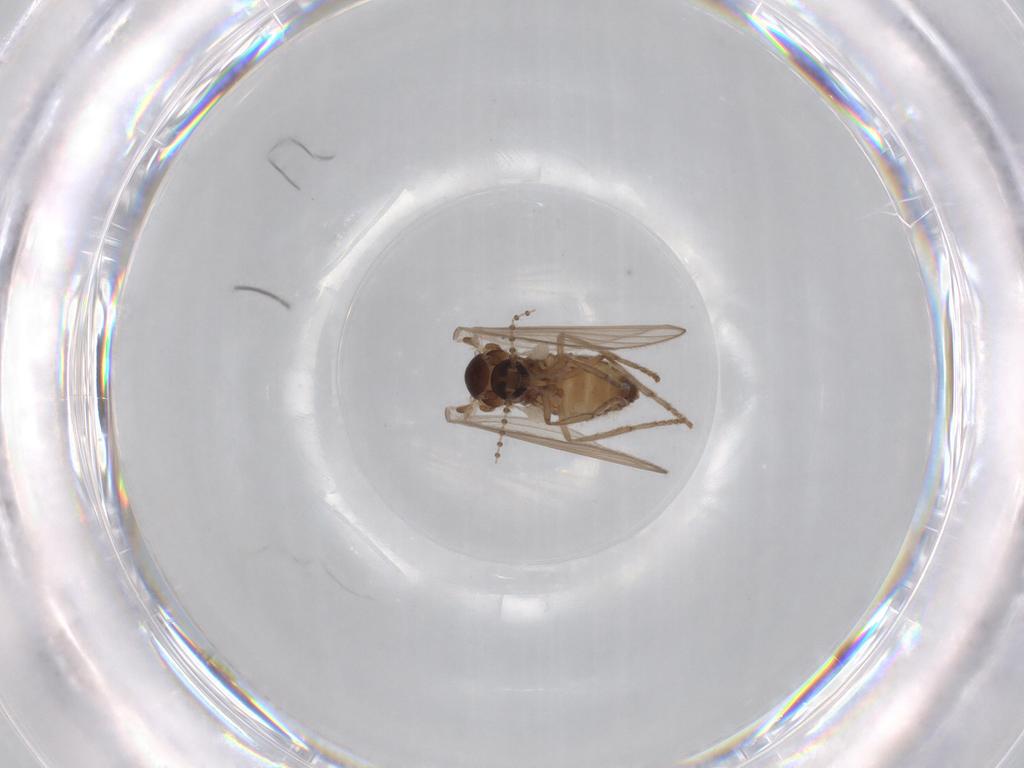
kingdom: Animalia
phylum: Arthropoda
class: Insecta
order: Diptera
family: Psychodidae
